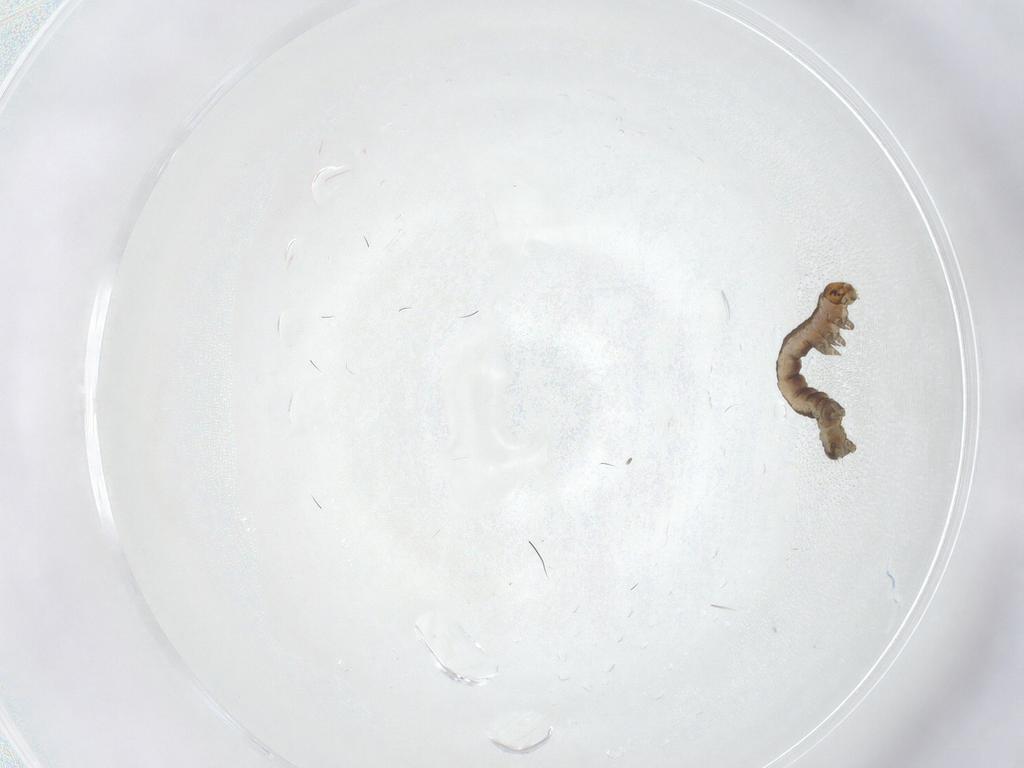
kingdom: Animalia
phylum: Arthropoda
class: Insecta
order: Lepidoptera
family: Geometridae
